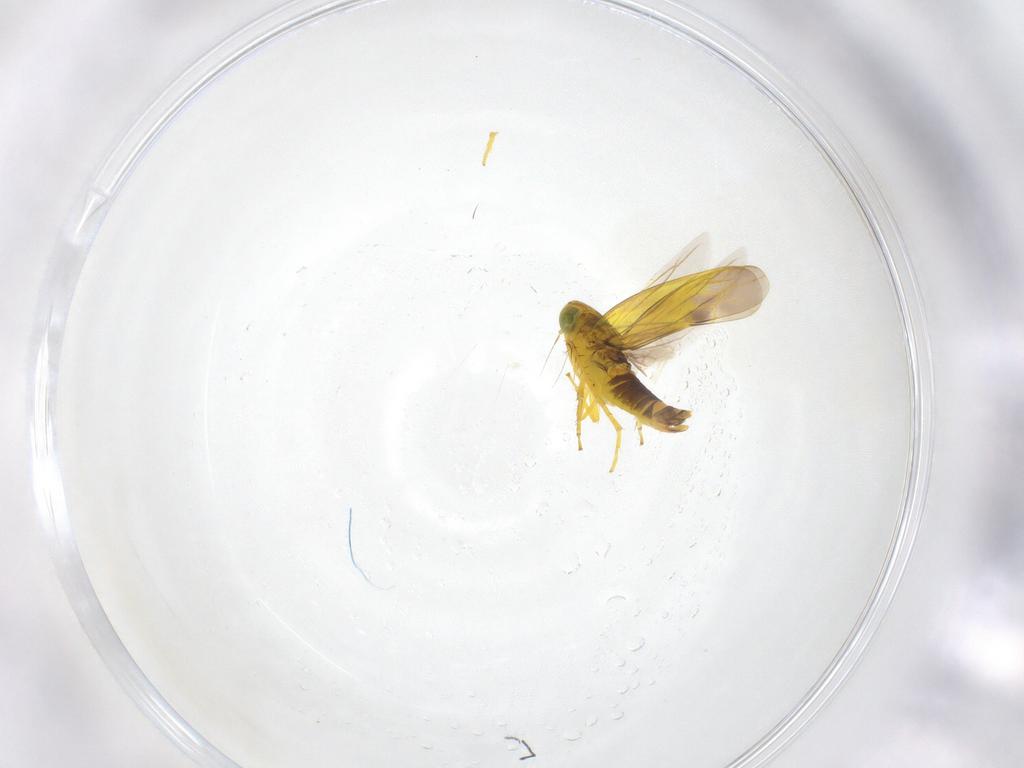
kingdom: Animalia
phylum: Arthropoda
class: Insecta
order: Hemiptera
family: Cicadellidae
